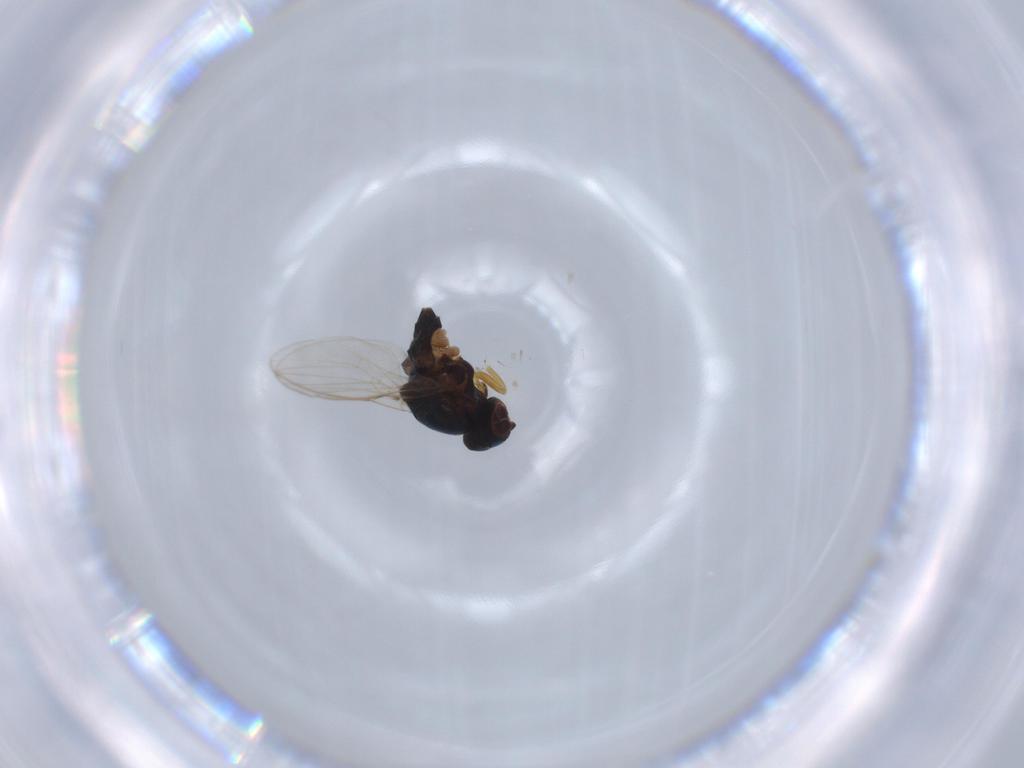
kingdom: Animalia
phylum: Arthropoda
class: Insecta
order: Diptera
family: Chloropidae
